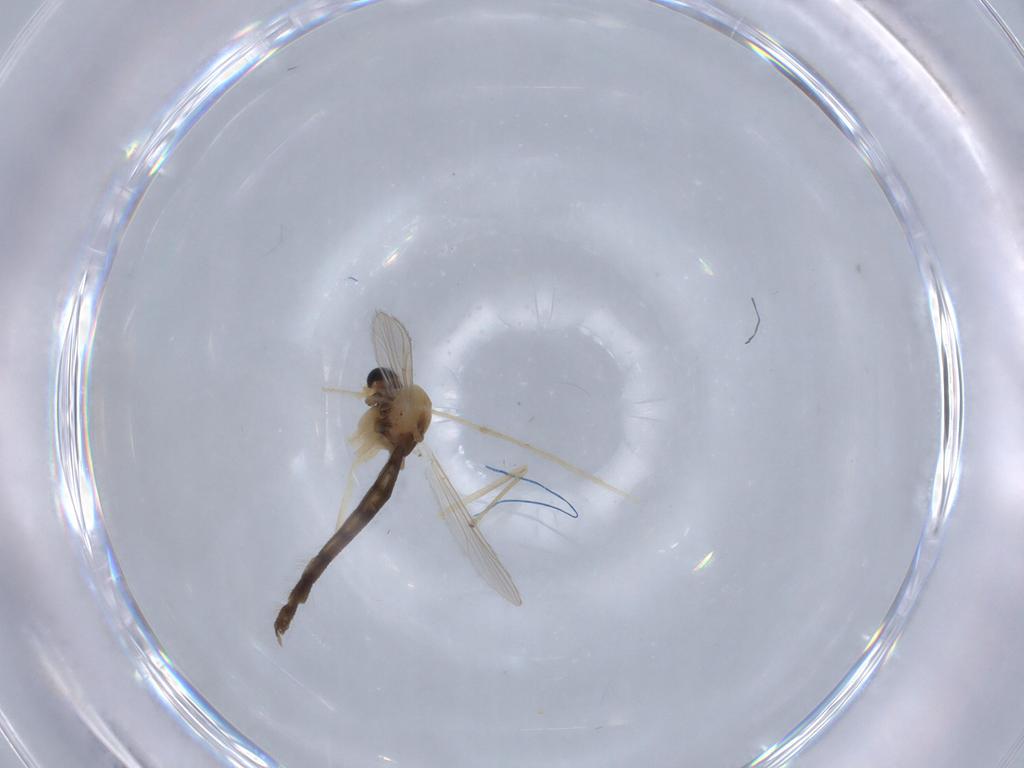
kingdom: Animalia
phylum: Arthropoda
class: Insecta
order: Diptera
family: Chironomidae
